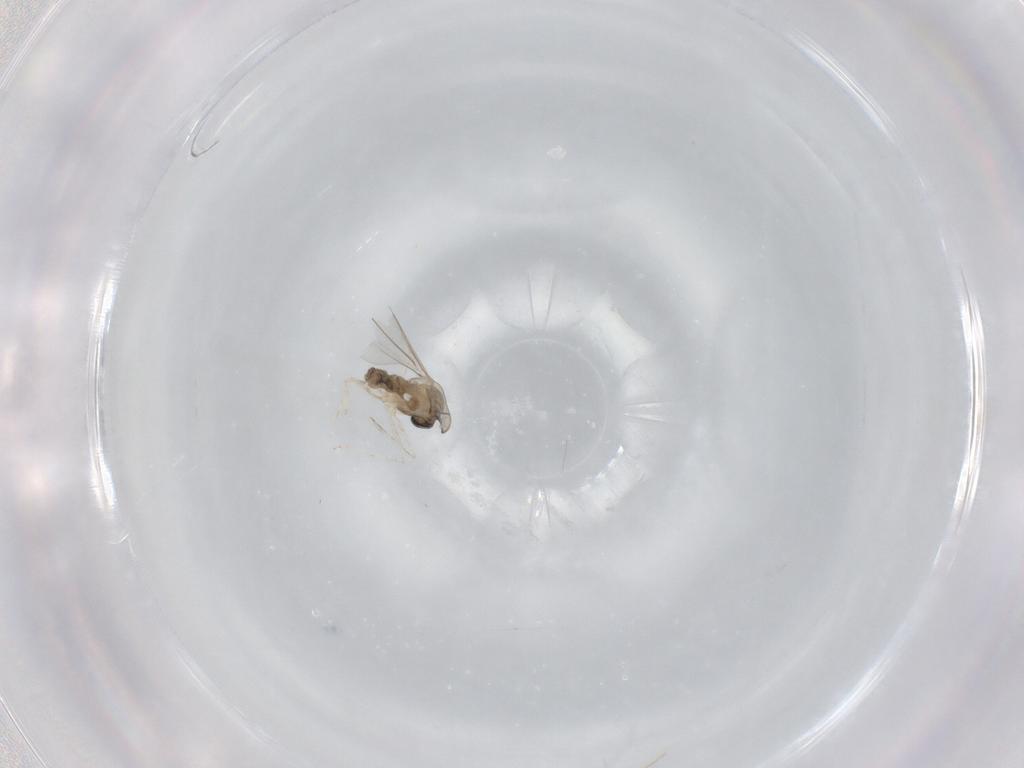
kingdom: Animalia
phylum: Arthropoda
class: Insecta
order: Diptera
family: Cecidomyiidae
